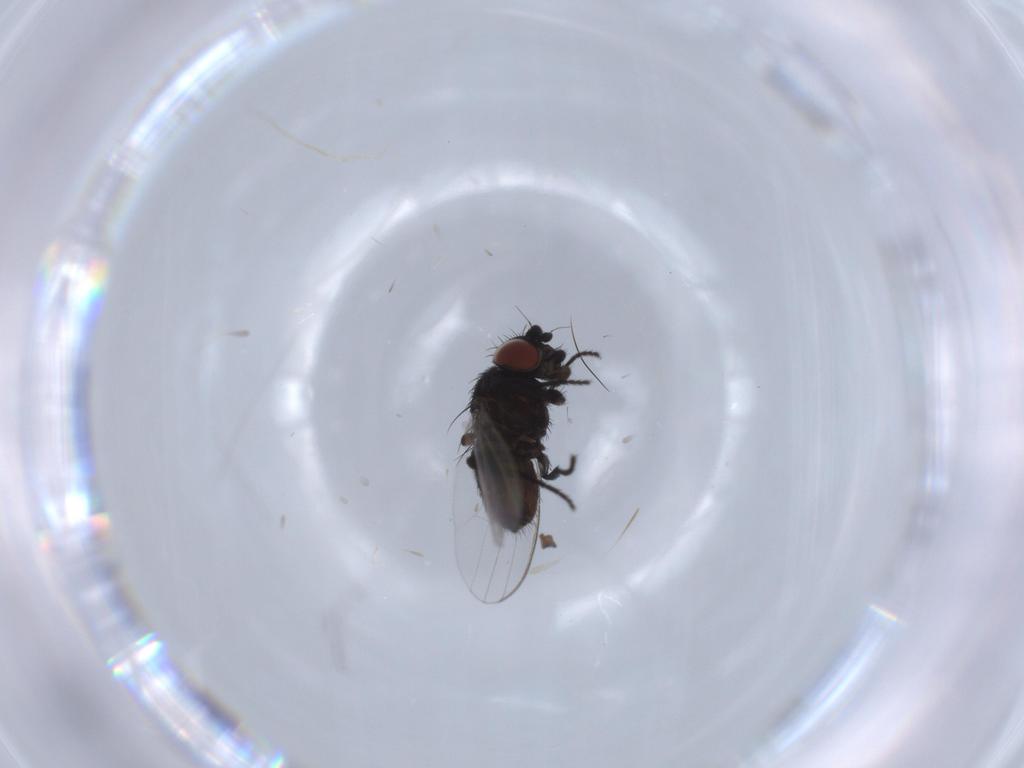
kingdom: Animalia
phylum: Arthropoda
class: Insecta
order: Diptera
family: Milichiidae
